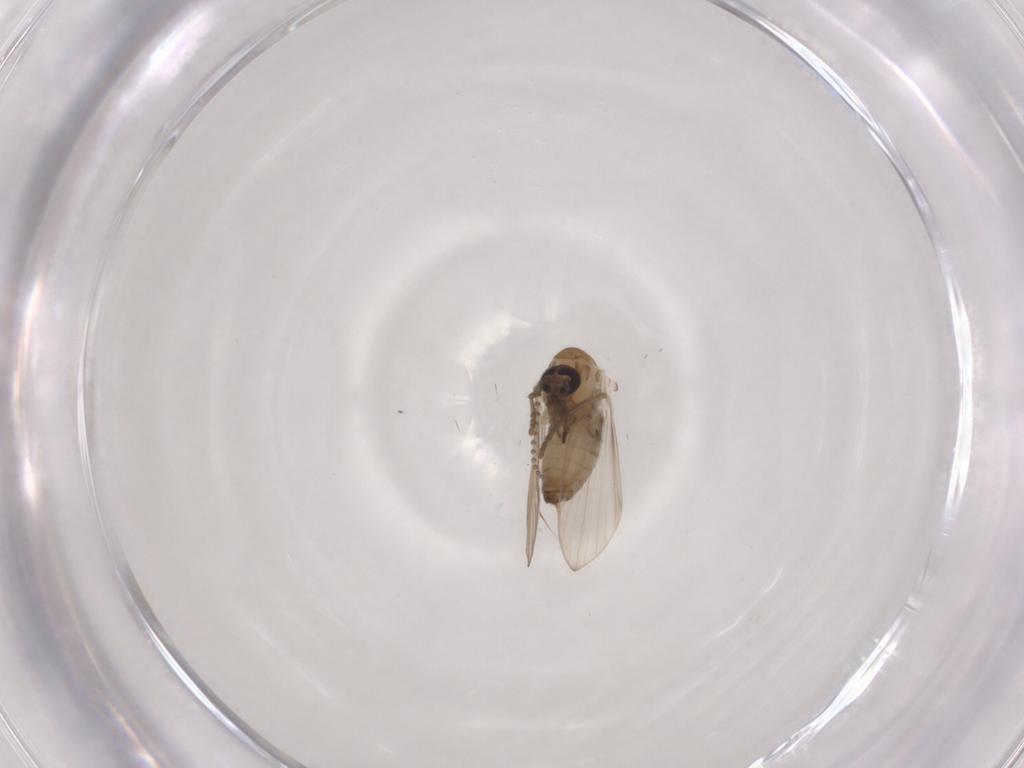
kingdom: Animalia
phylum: Arthropoda
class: Insecta
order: Diptera
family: Psychodidae
